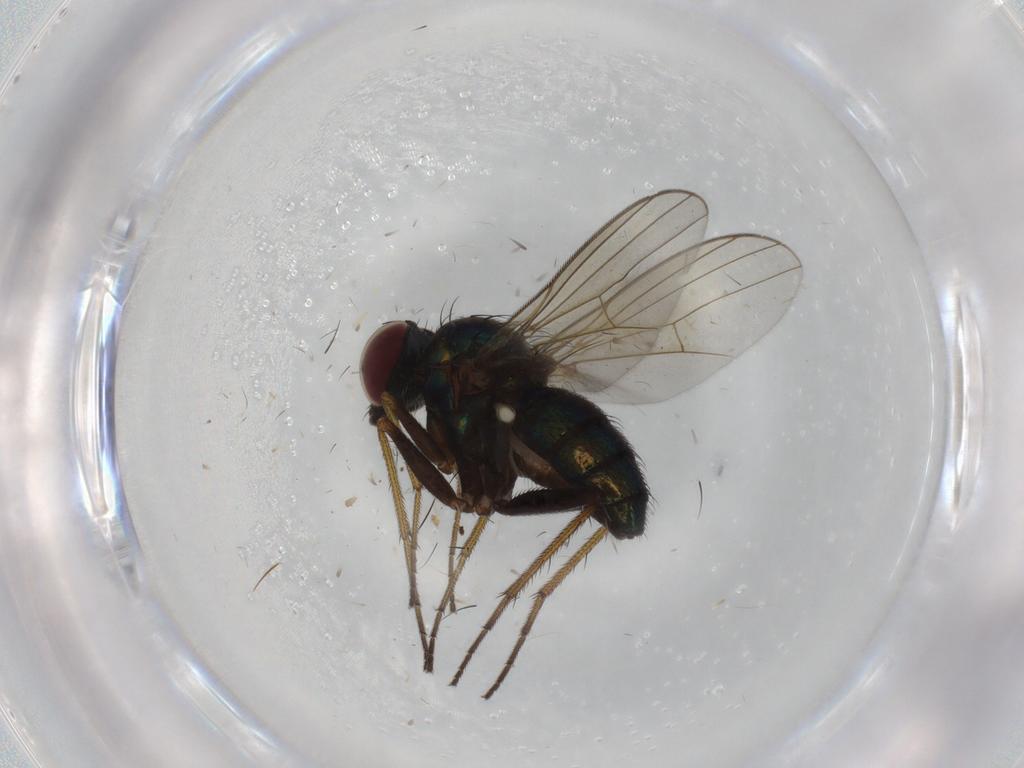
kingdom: Animalia
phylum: Arthropoda
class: Insecta
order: Diptera
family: Dolichopodidae
